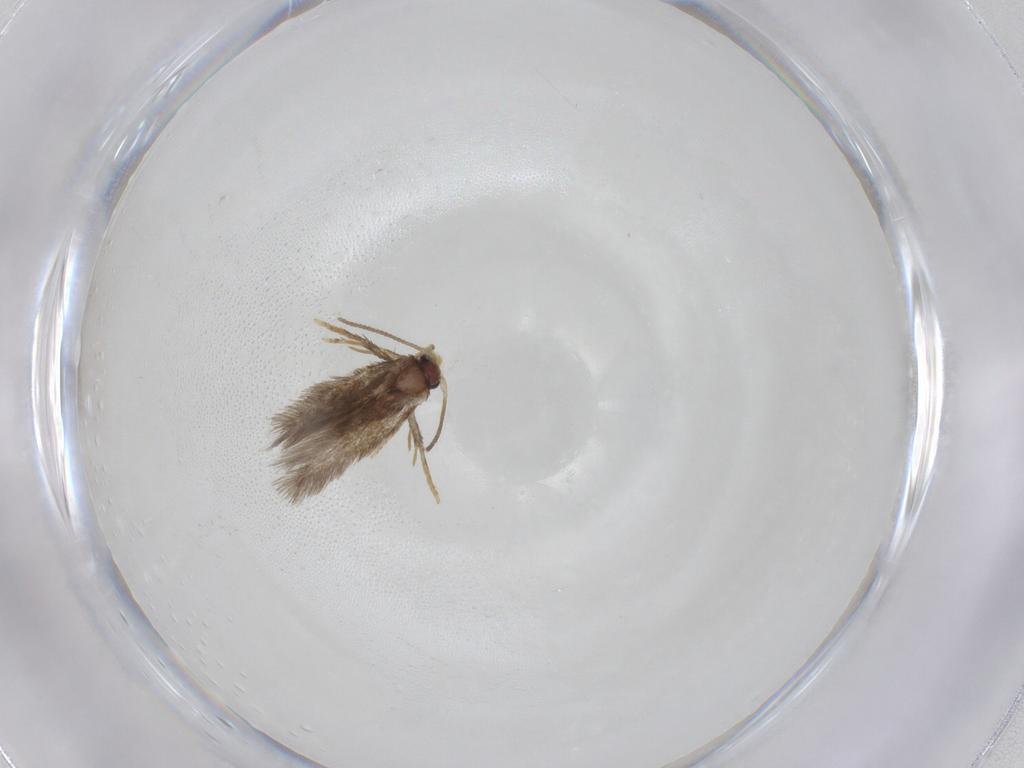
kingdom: Animalia
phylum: Arthropoda
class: Insecta
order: Lepidoptera
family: Nepticulidae
